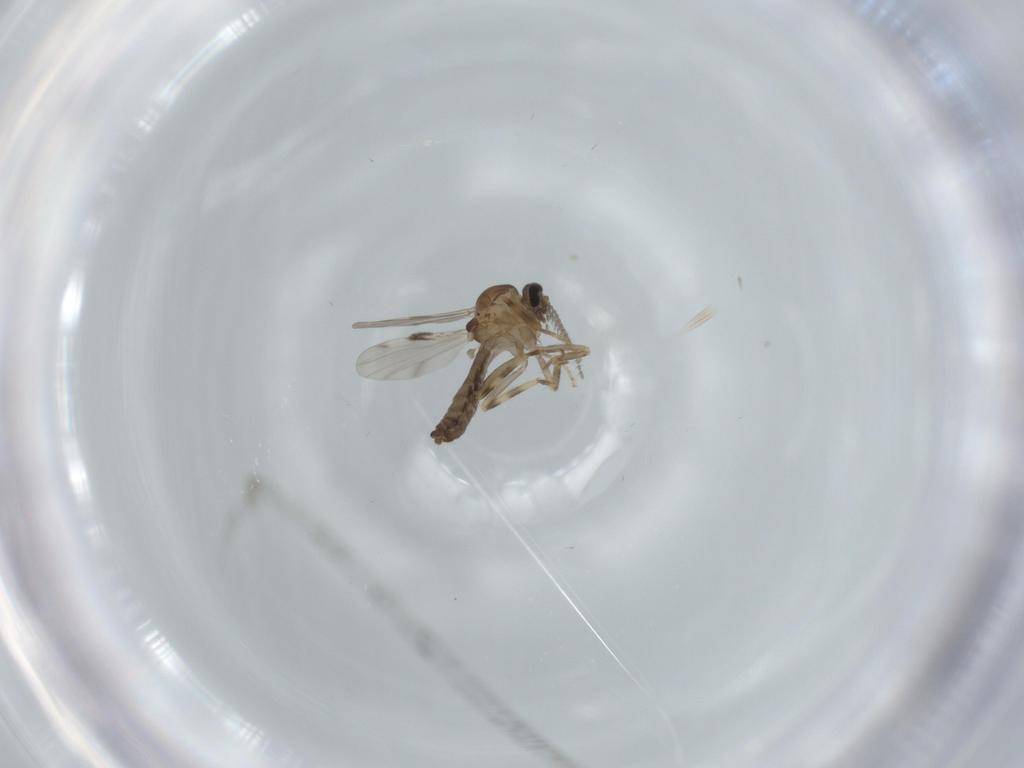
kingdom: Animalia
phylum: Arthropoda
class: Insecta
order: Diptera
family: Ceratopogonidae
